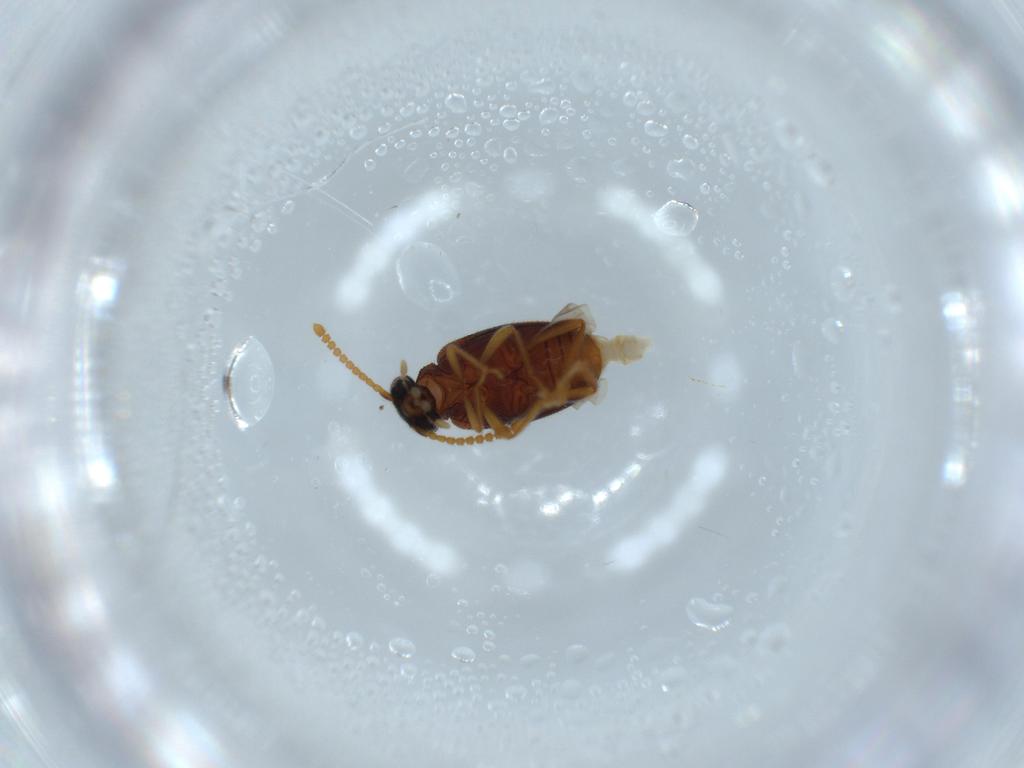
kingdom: Animalia
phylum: Arthropoda
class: Insecta
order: Coleoptera
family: Aderidae
